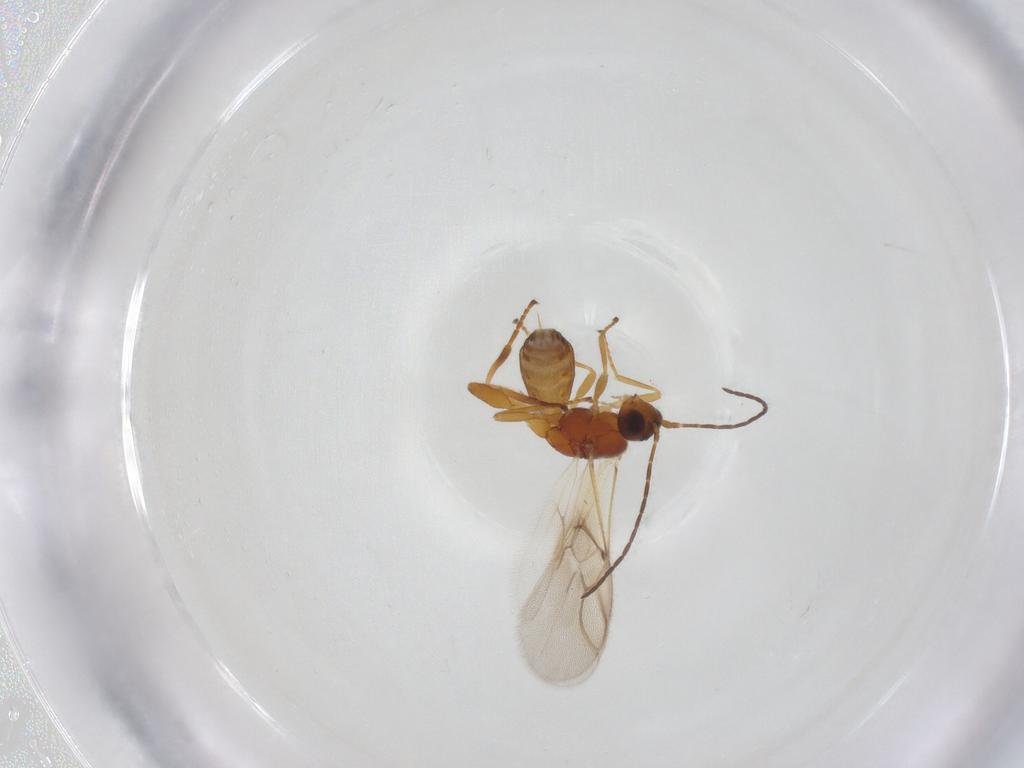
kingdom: Animalia
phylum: Arthropoda
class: Insecta
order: Hymenoptera
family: Braconidae
